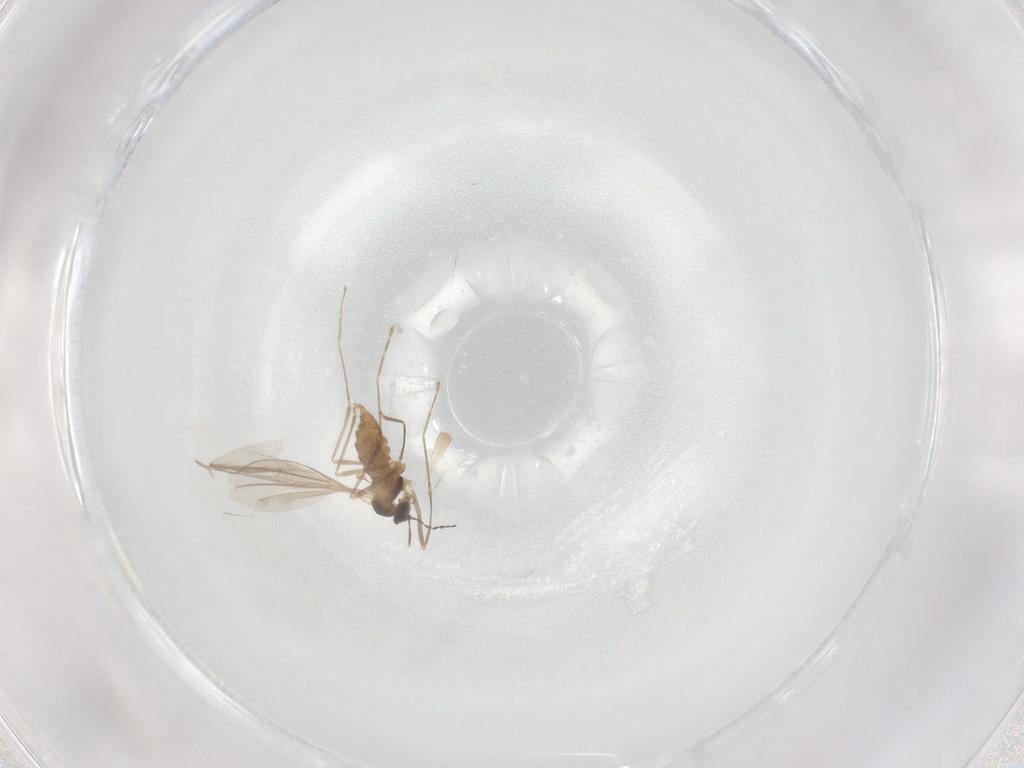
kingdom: Animalia
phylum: Arthropoda
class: Insecta
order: Diptera
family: Cecidomyiidae
